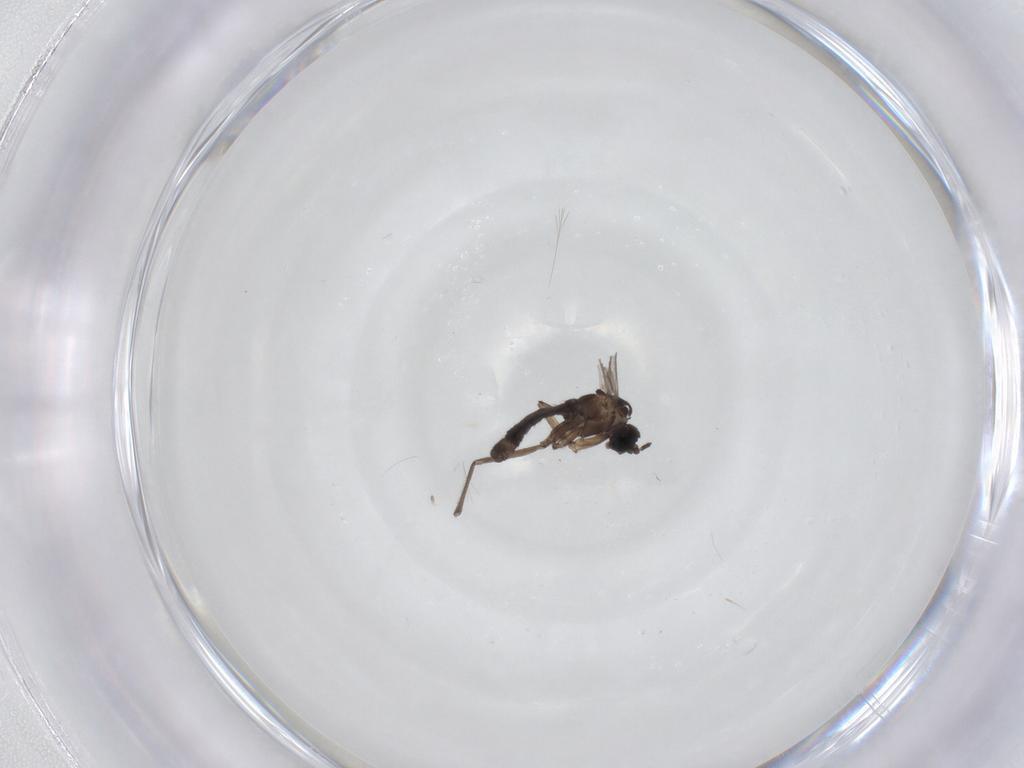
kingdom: Animalia
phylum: Arthropoda
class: Insecta
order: Diptera
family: Sciaridae
